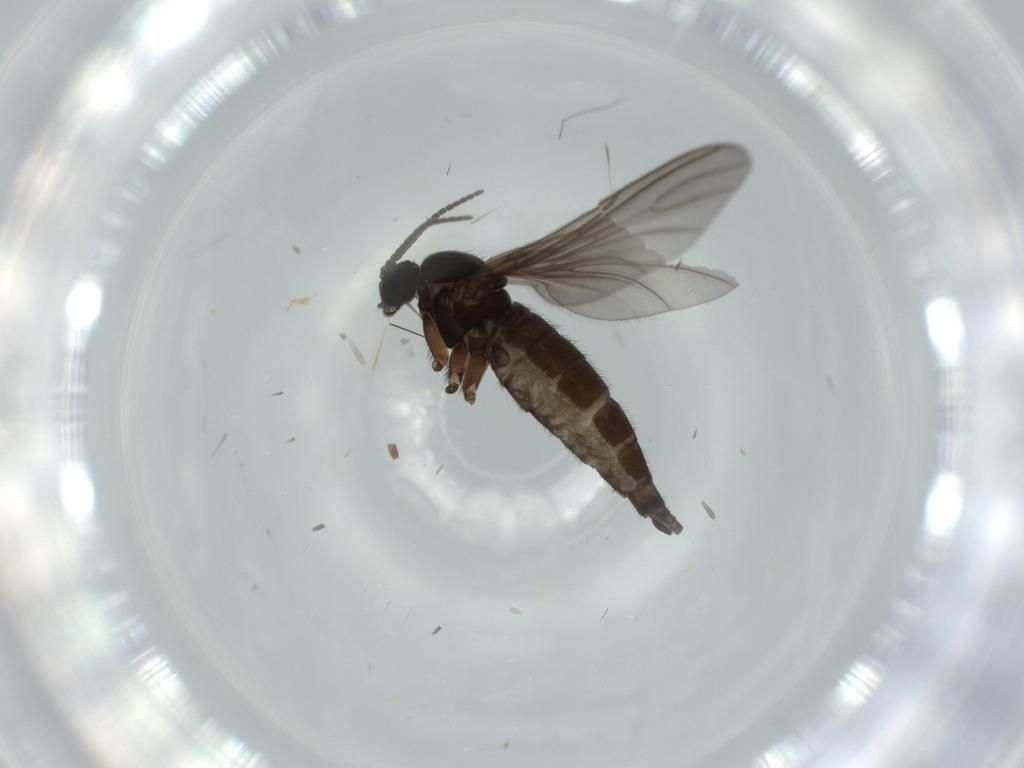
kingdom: Animalia
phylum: Arthropoda
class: Insecta
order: Diptera
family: Sciaridae
